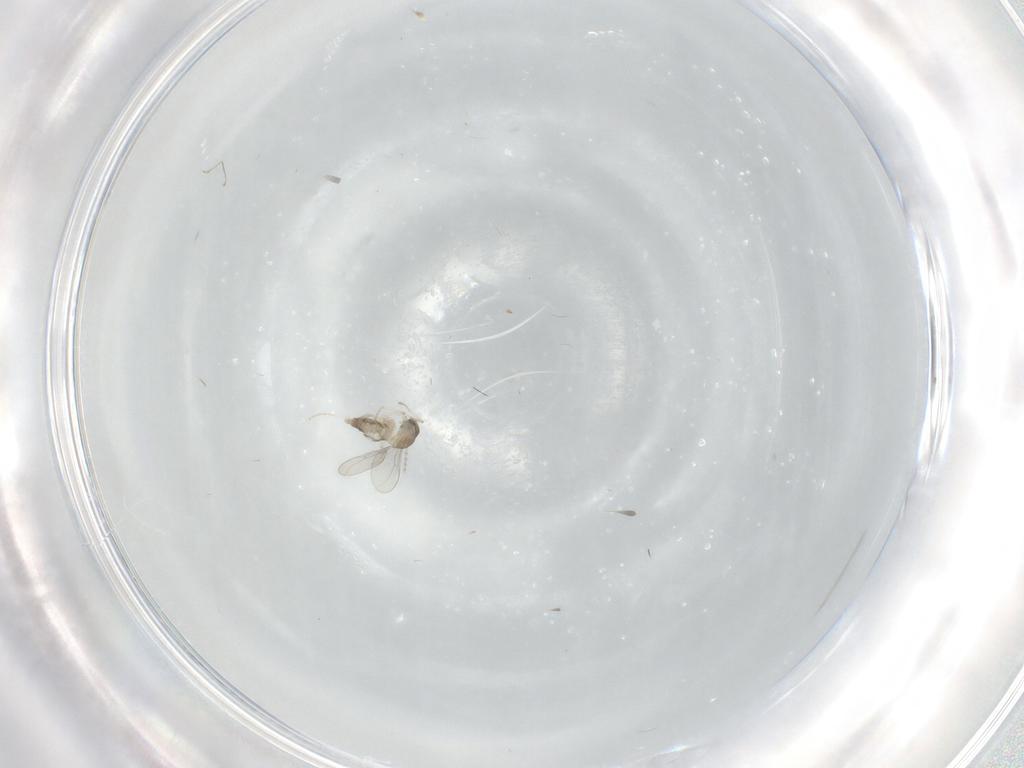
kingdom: Animalia
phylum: Arthropoda
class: Insecta
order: Diptera
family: Cecidomyiidae
